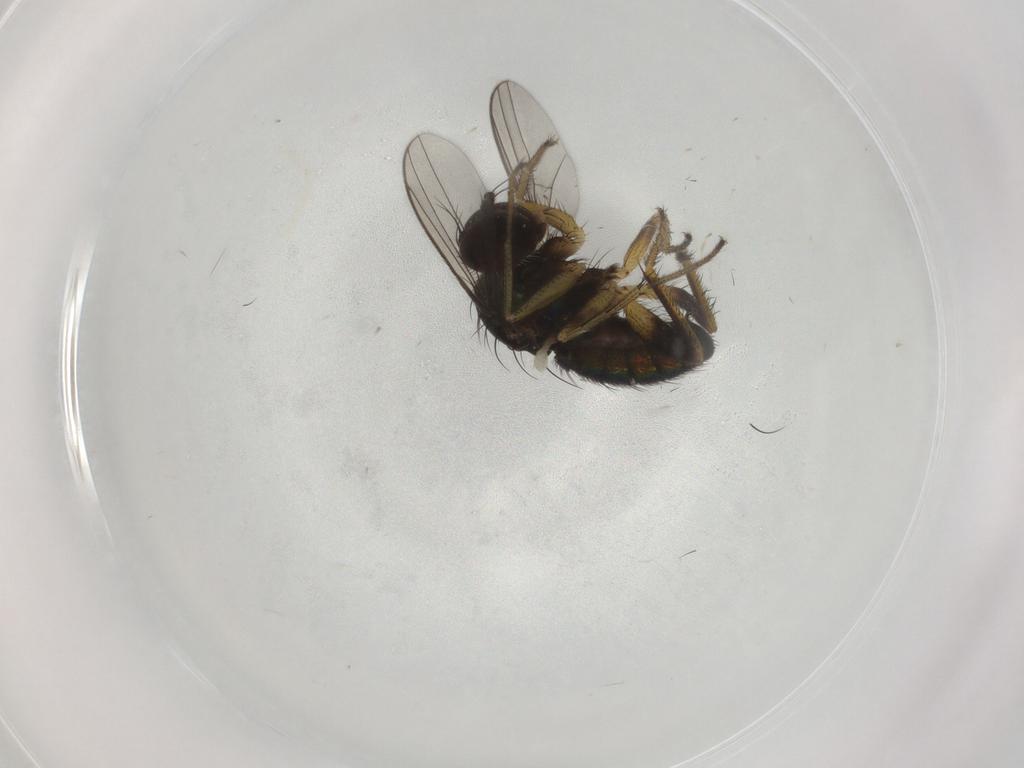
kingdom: Animalia
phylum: Arthropoda
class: Insecta
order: Diptera
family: Dolichopodidae
